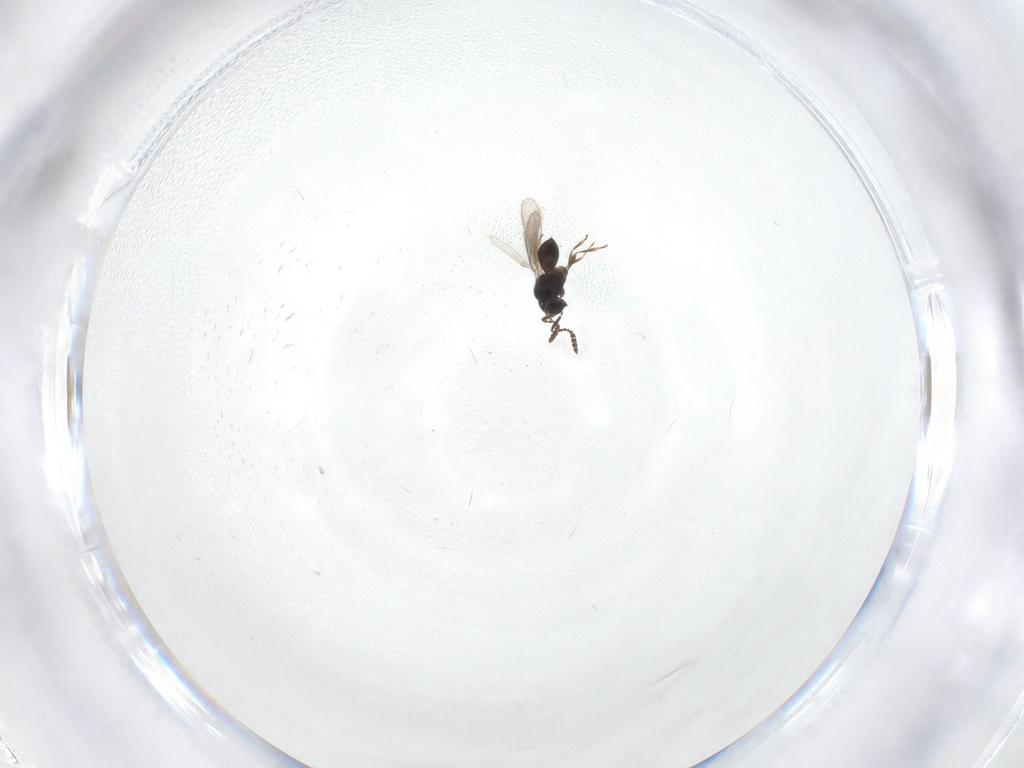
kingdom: Animalia
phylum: Arthropoda
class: Insecta
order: Hymenoptera
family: Scelionidae
